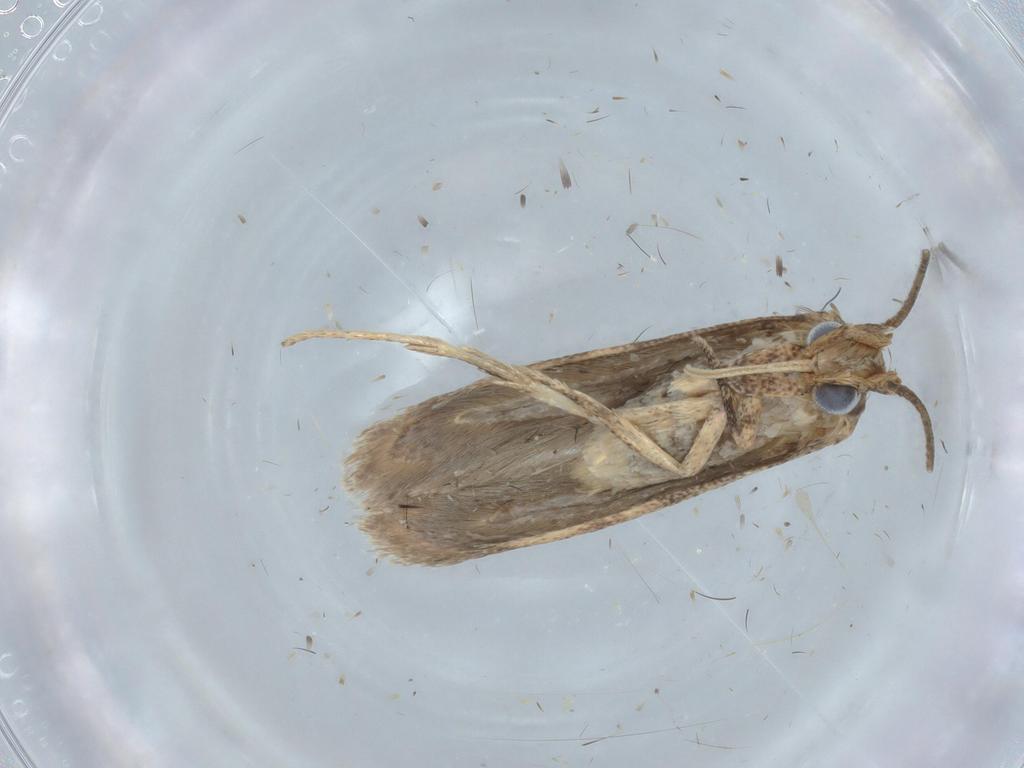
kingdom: Animalia
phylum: Arthropoda
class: Insecta
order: Lepidoptera
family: Blastobasidae
